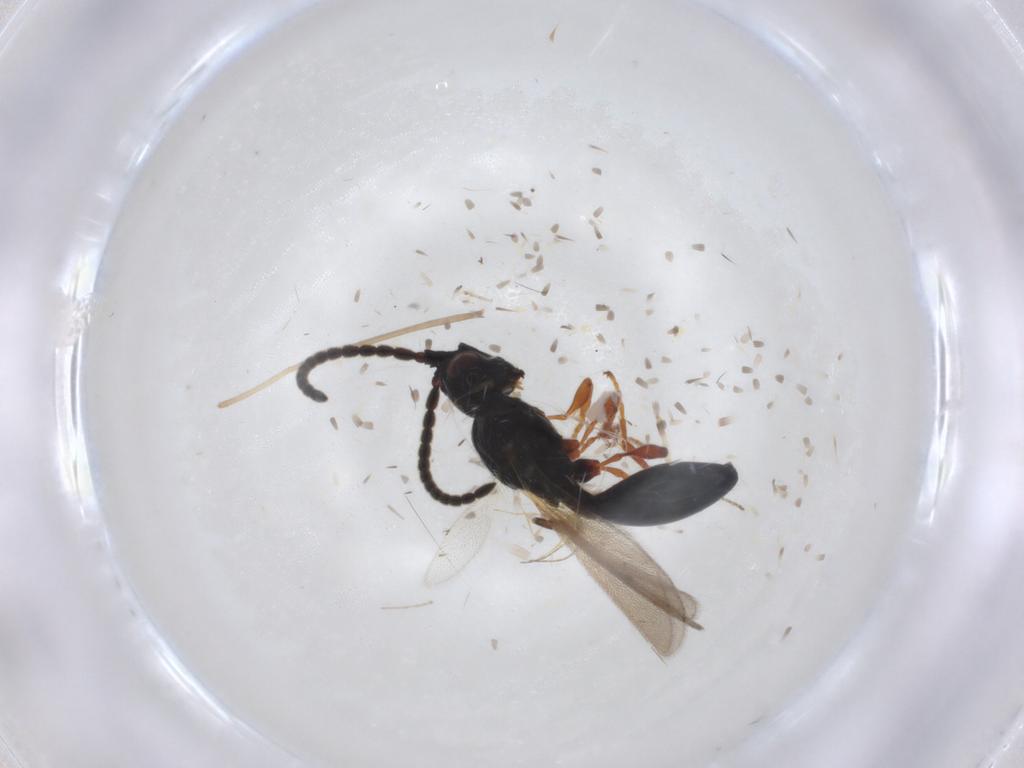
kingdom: Animalia
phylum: Arthropoda
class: Insecta
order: Hymenoptera
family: Diapriidae
